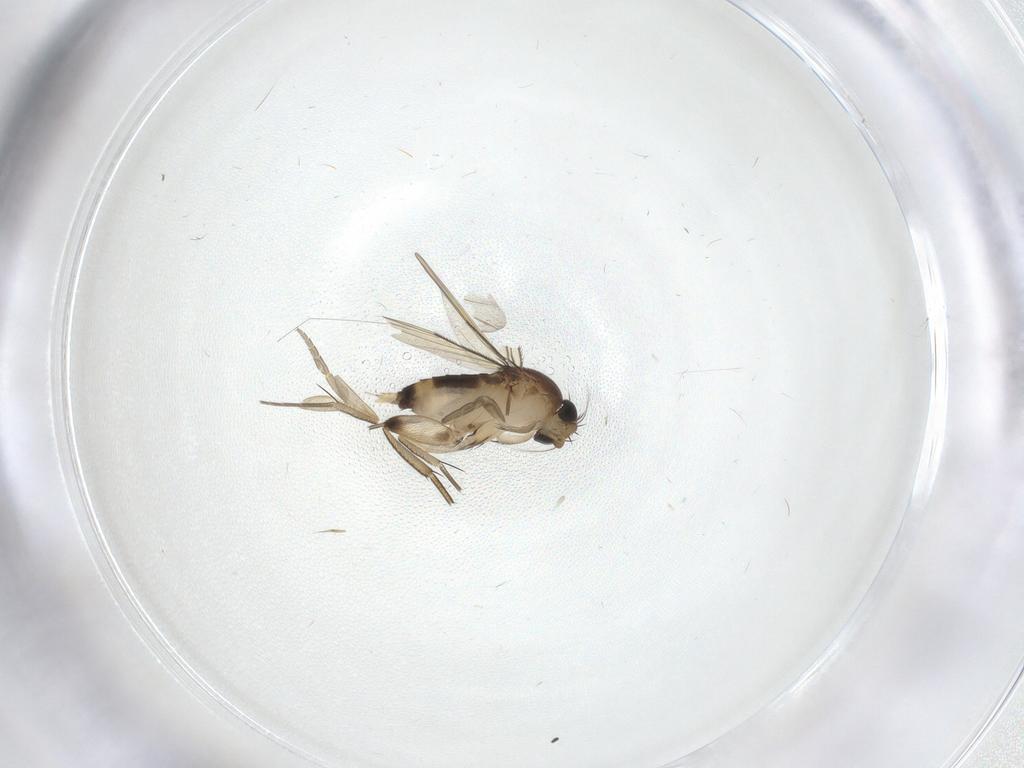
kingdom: Animalia
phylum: Arthropoda
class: Insecta
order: Diptera
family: Phoridae
